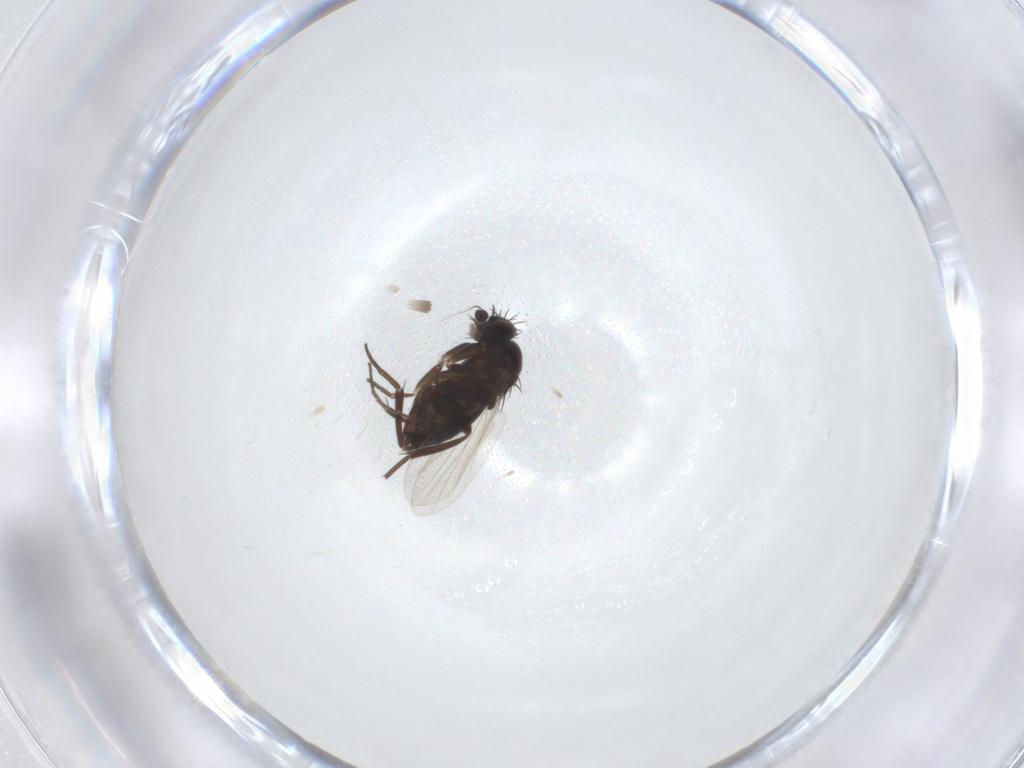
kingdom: Animalia
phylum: Arthropoda
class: Insecta
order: Diptera
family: Phoridae
